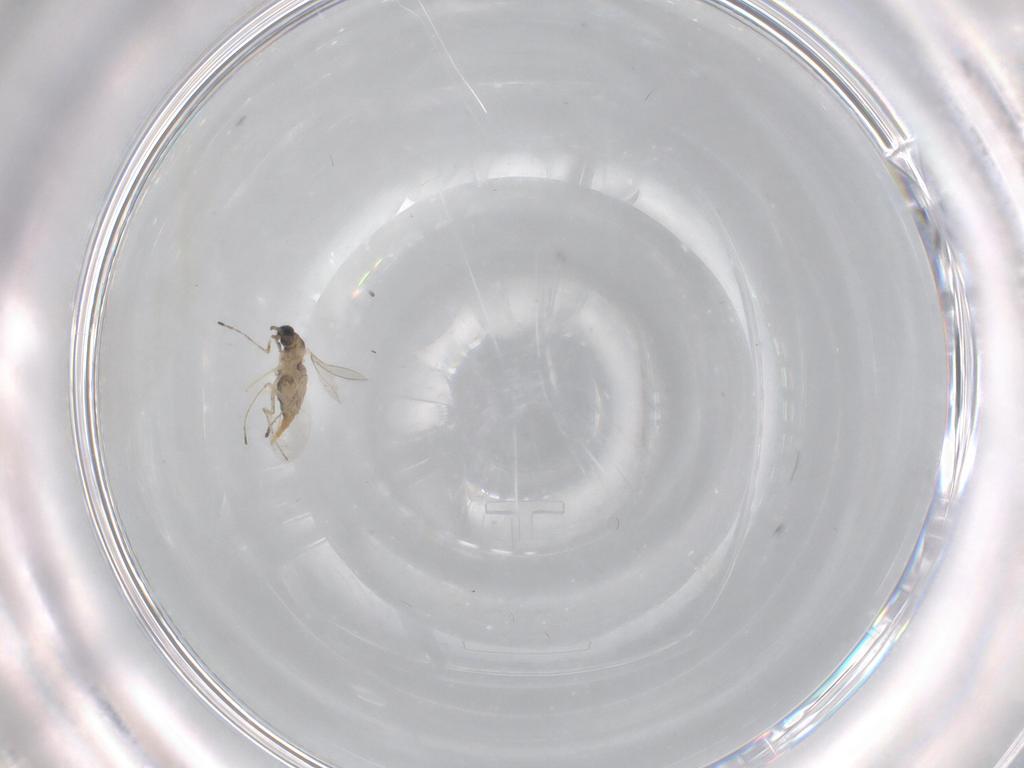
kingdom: Animalia
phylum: Arthropoda
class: Insecta
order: Diptera
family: Cecidomyiidae
